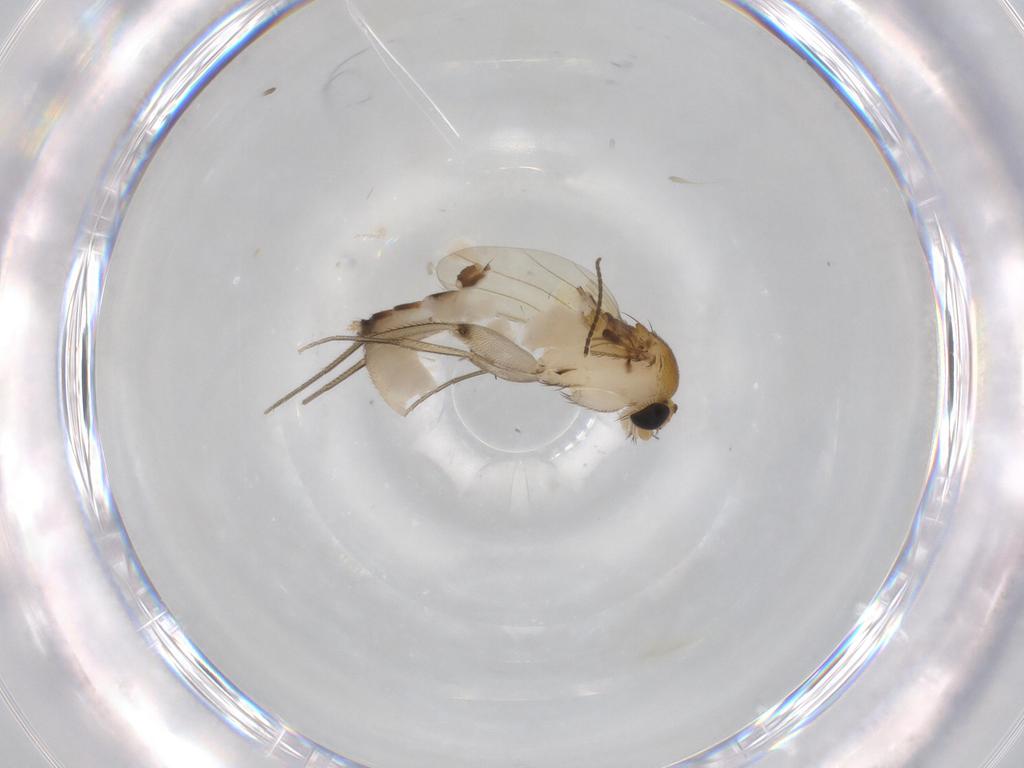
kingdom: Animalia
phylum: Arthropoda
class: Insecta
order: Diptera
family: Phoridae
